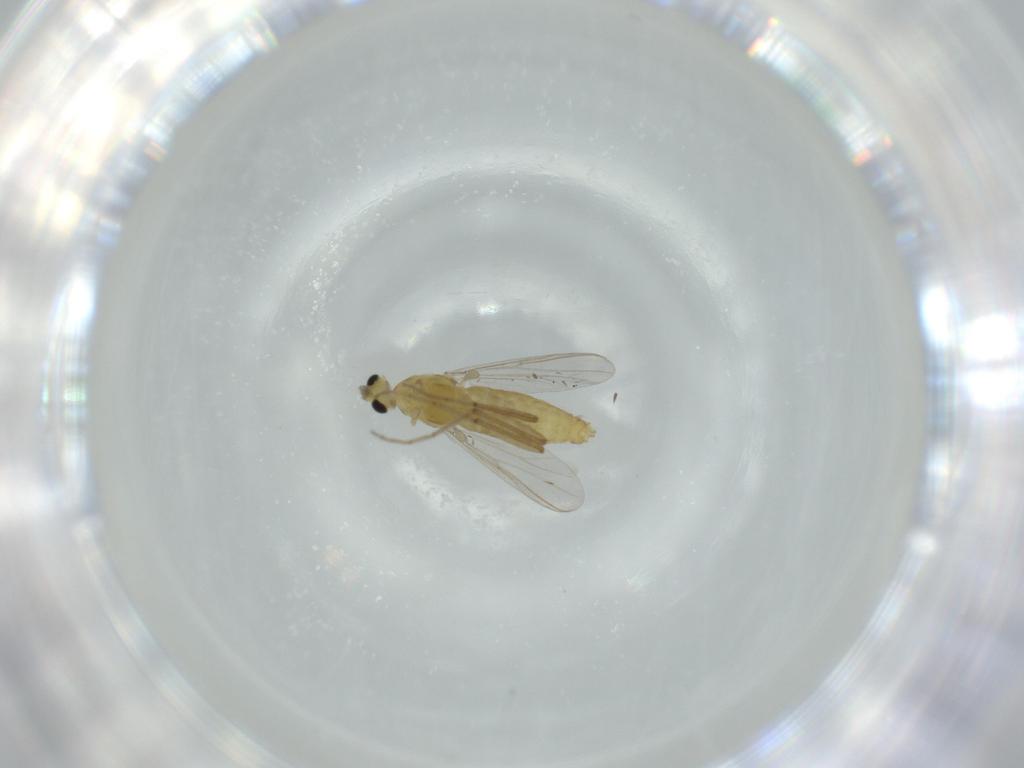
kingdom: Animalia
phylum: Arthropoda
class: Insecta
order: Diptera
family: Chironomidae
